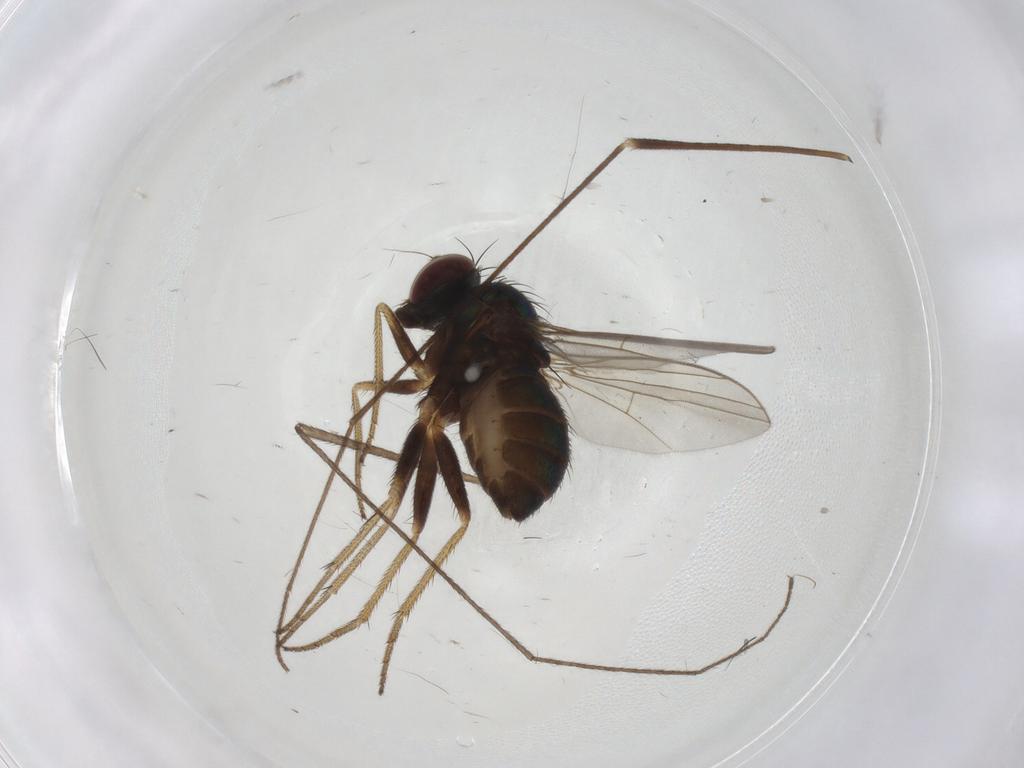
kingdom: Animalia
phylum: Arthropoda
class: Insecta
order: Diptera
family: Limoniidae
